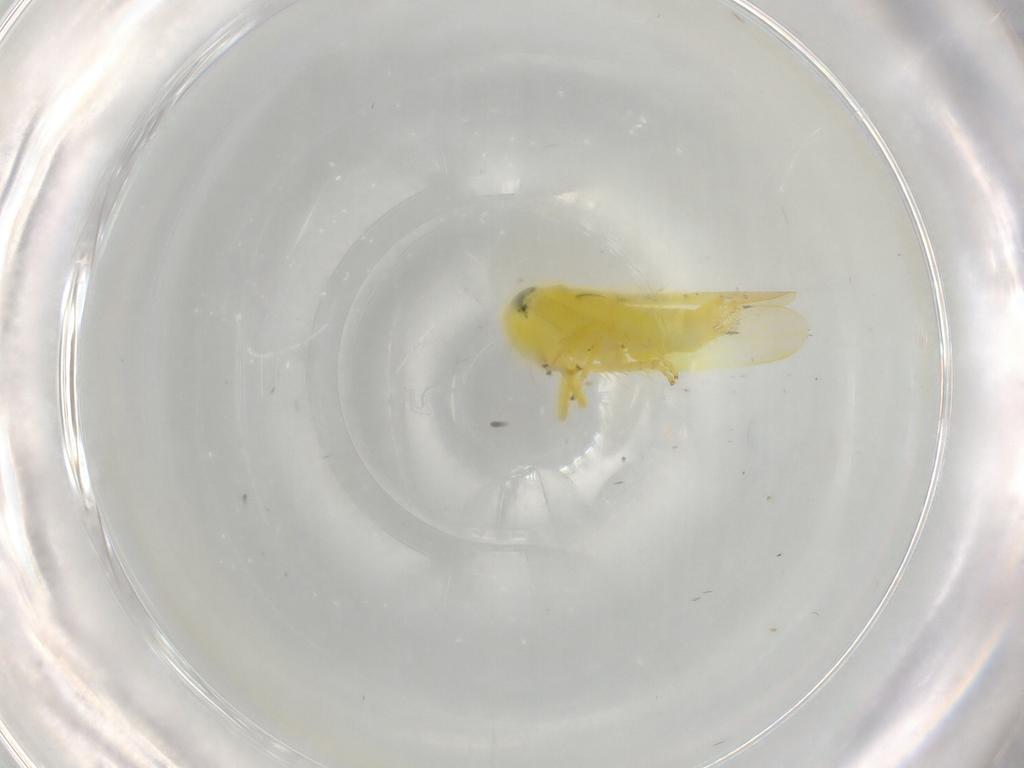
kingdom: Animalia
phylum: Arthropoda
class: Insecta
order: Hemiptera
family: Cicadellidae
